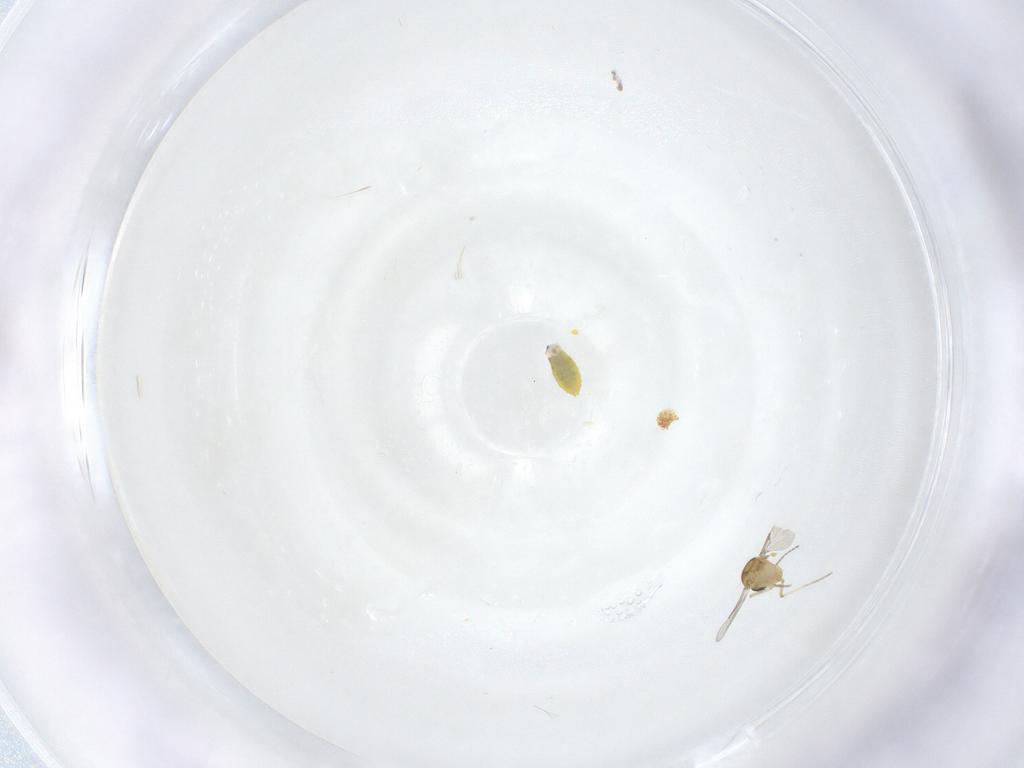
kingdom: Animalia
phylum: Arthropoda
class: Insecta
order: Diptera
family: Ceratopogonidae
